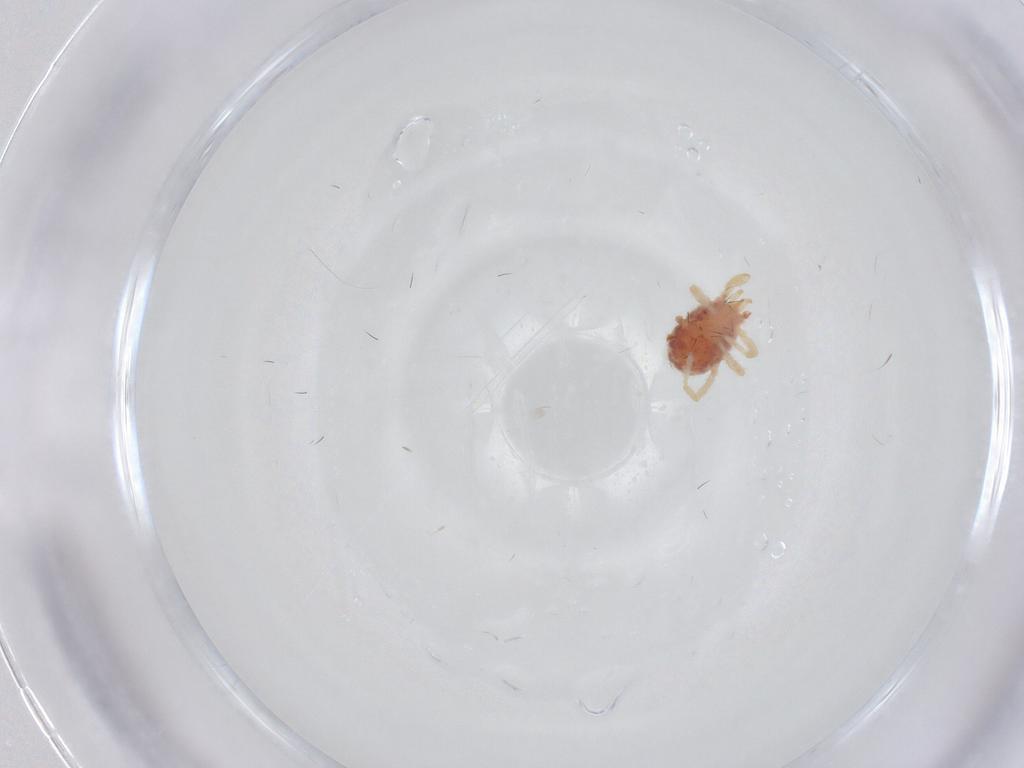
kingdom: Animalia
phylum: Arthropoda
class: Arachnida
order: Trombidiformes
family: Erythraeidae
